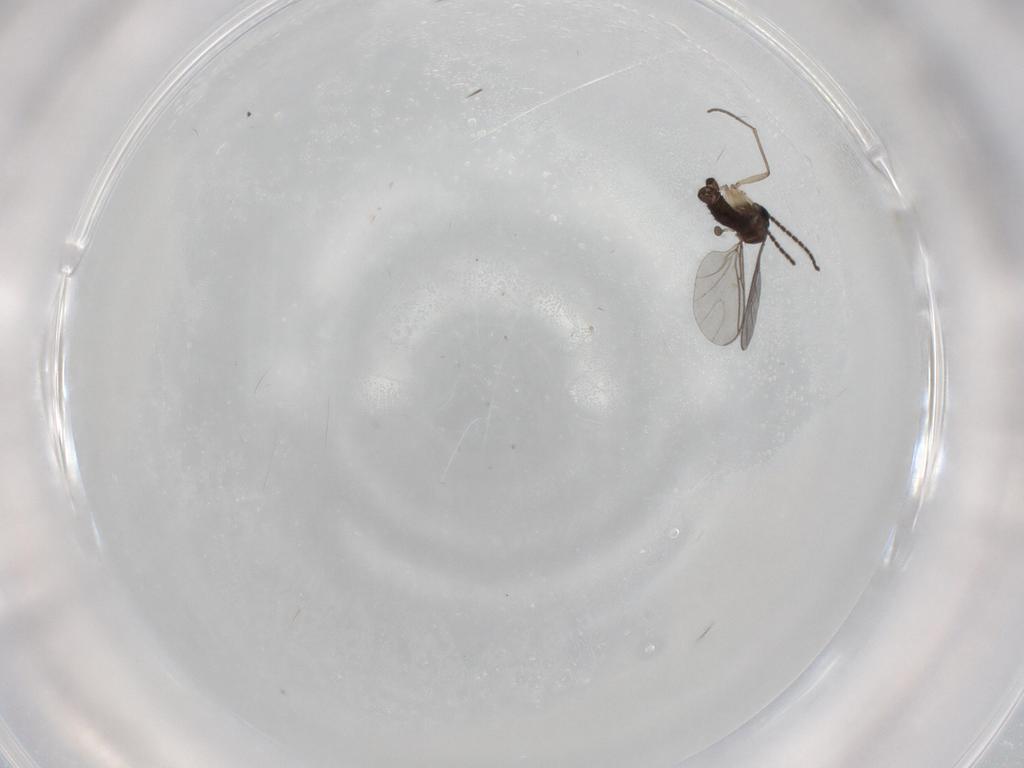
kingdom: Animalia
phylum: Arthropoda
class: Insecta
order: Diptera
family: Sciaridae
